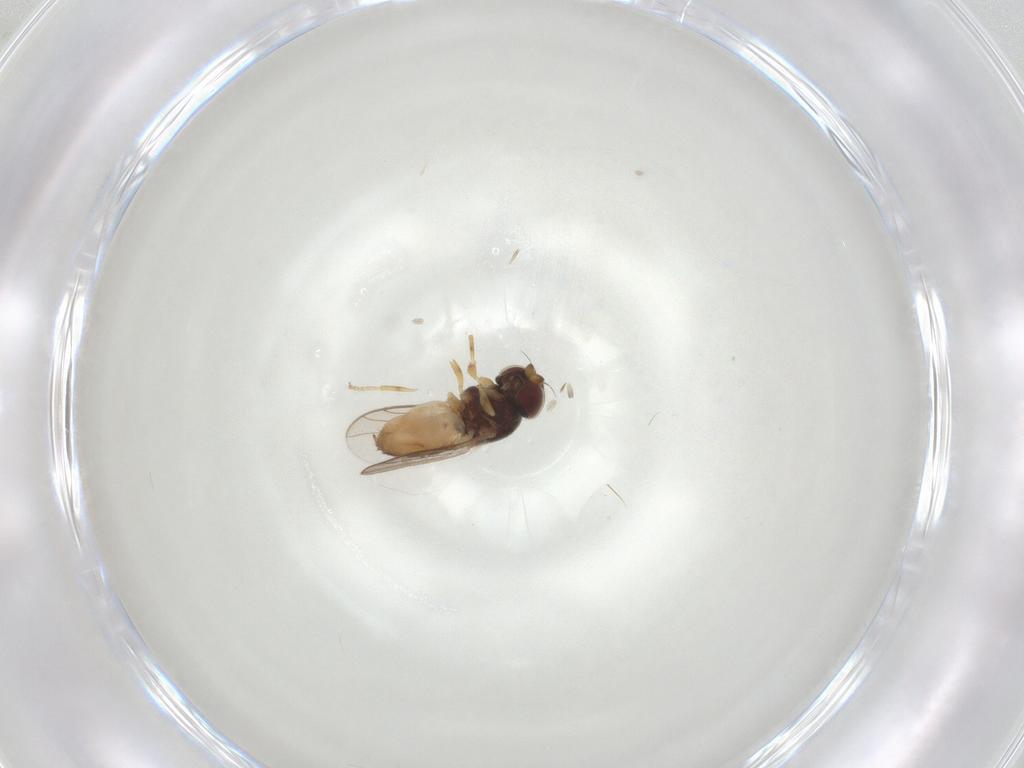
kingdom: Animalia
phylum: Arthropoda
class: Insecta
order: Diptera
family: Chloropidae
